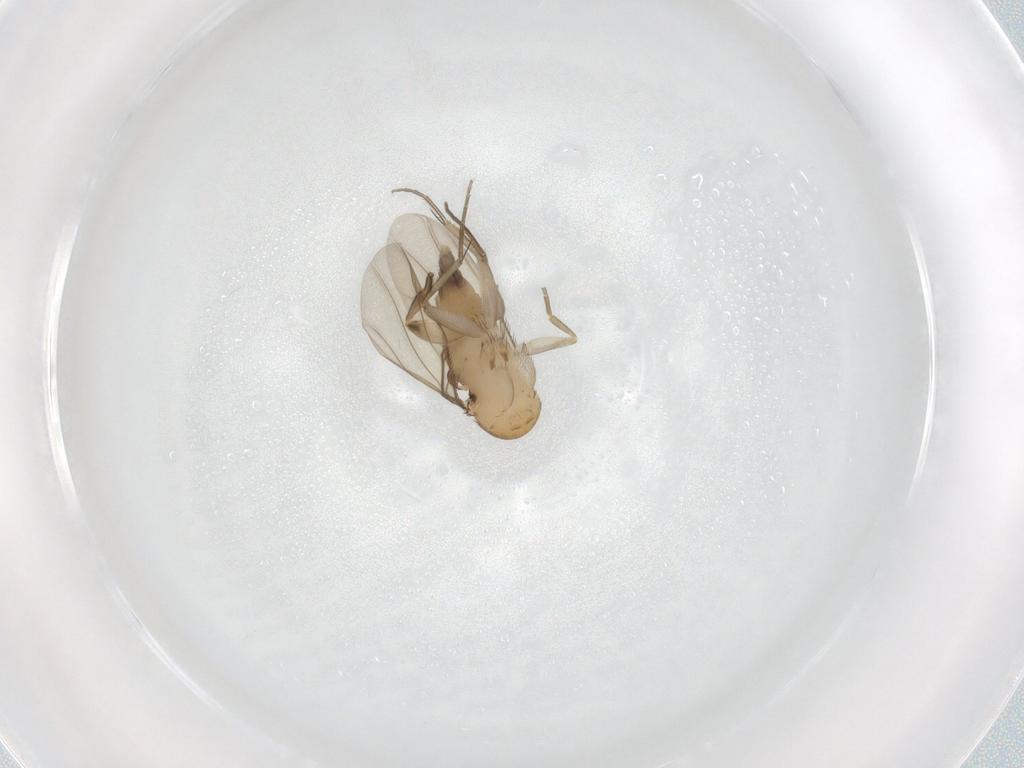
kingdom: Animalia
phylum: Arthropoda
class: Insecta
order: Diptera
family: Phoridae
